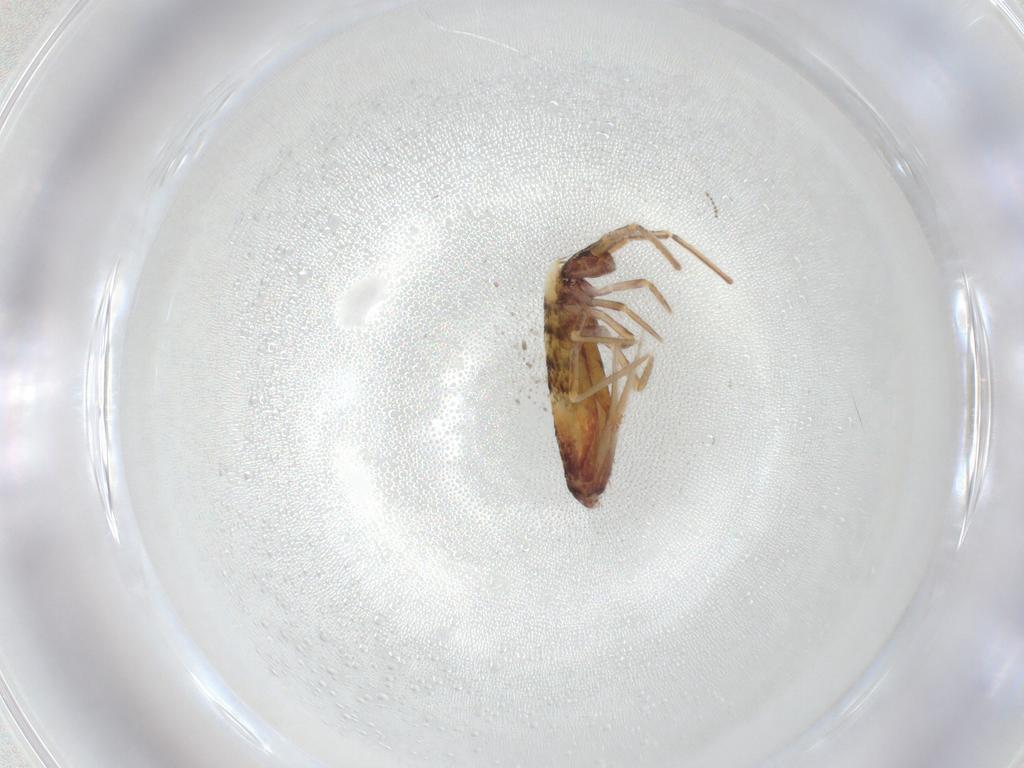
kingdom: Animalia
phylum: Arthropoda
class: Collembola
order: Entomobryomorpha
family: Entomobryidae
